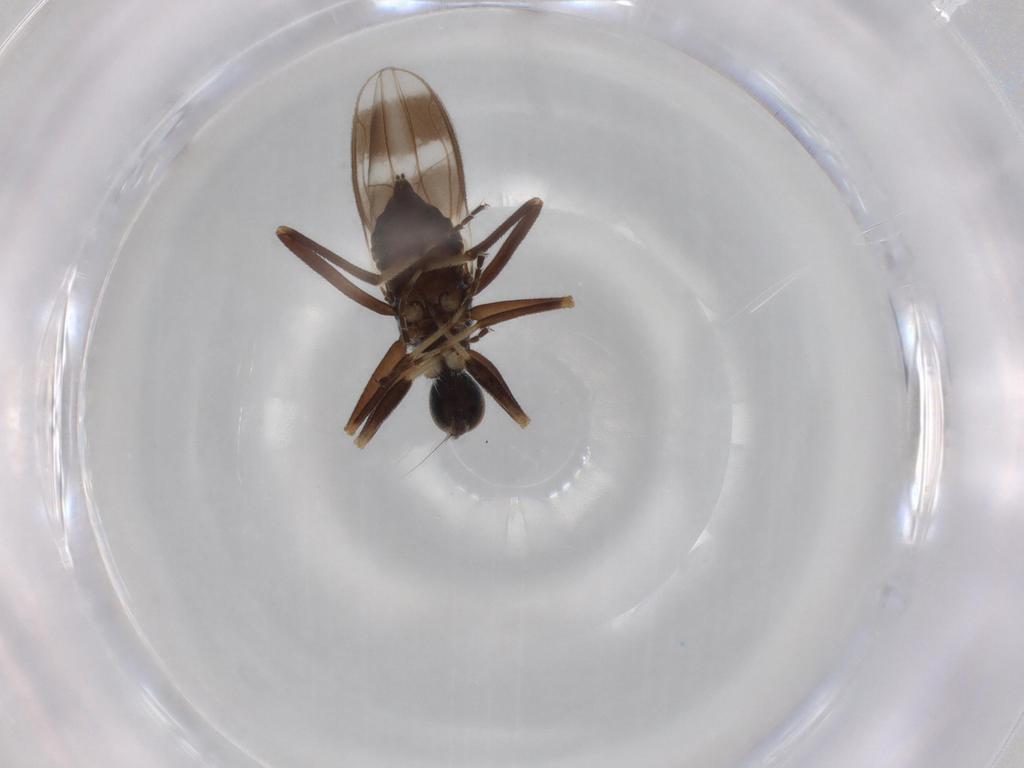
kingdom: Animalia
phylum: Arthropoda
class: Insecta
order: Diptera
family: Hybotidae
